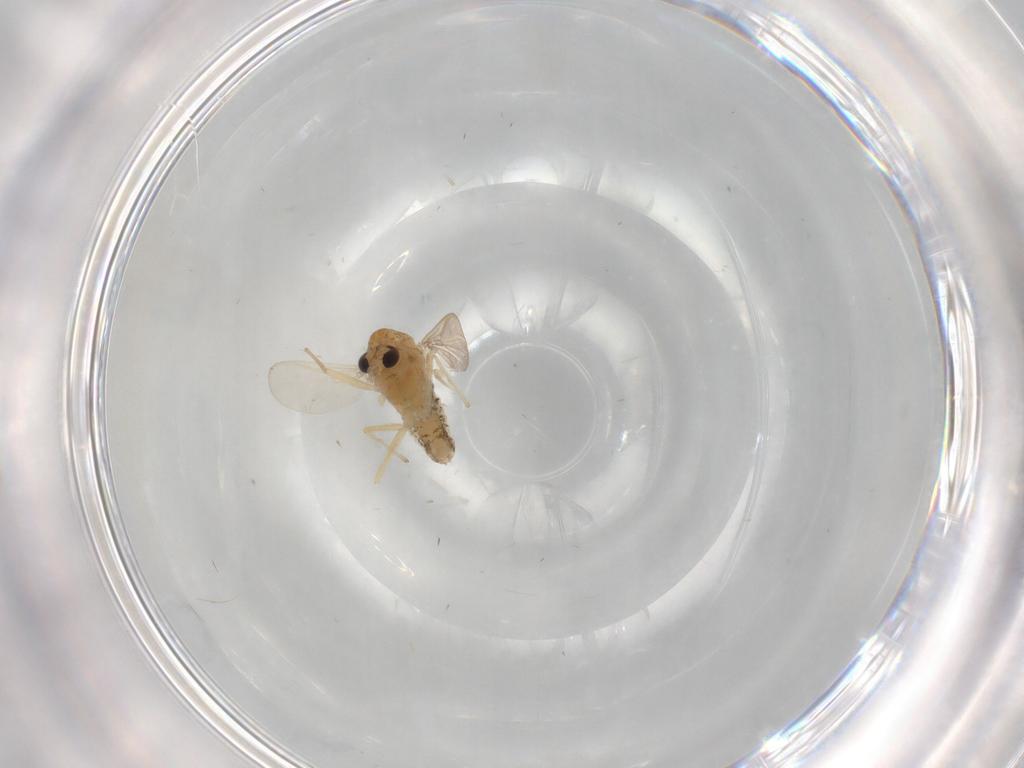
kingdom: Animalia
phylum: Arthropoda
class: Insecta
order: Diptera
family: Chironomidae
